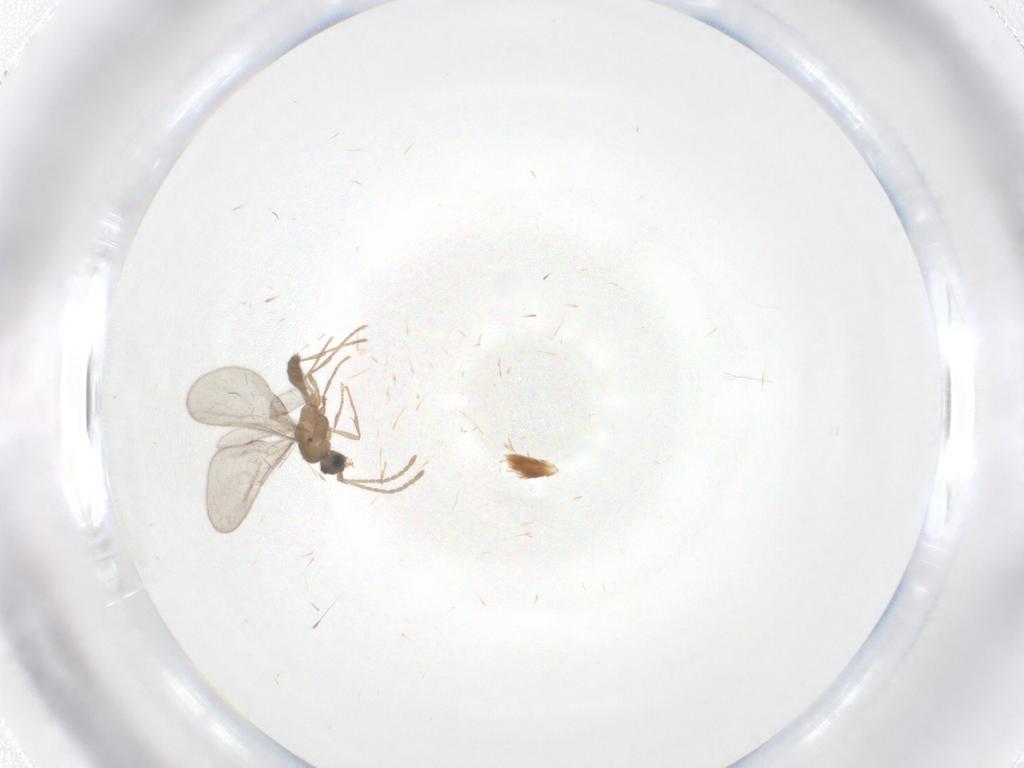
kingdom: Animalia
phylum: Arthropoda
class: Insecta
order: Hymenoptera
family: Formicidae
